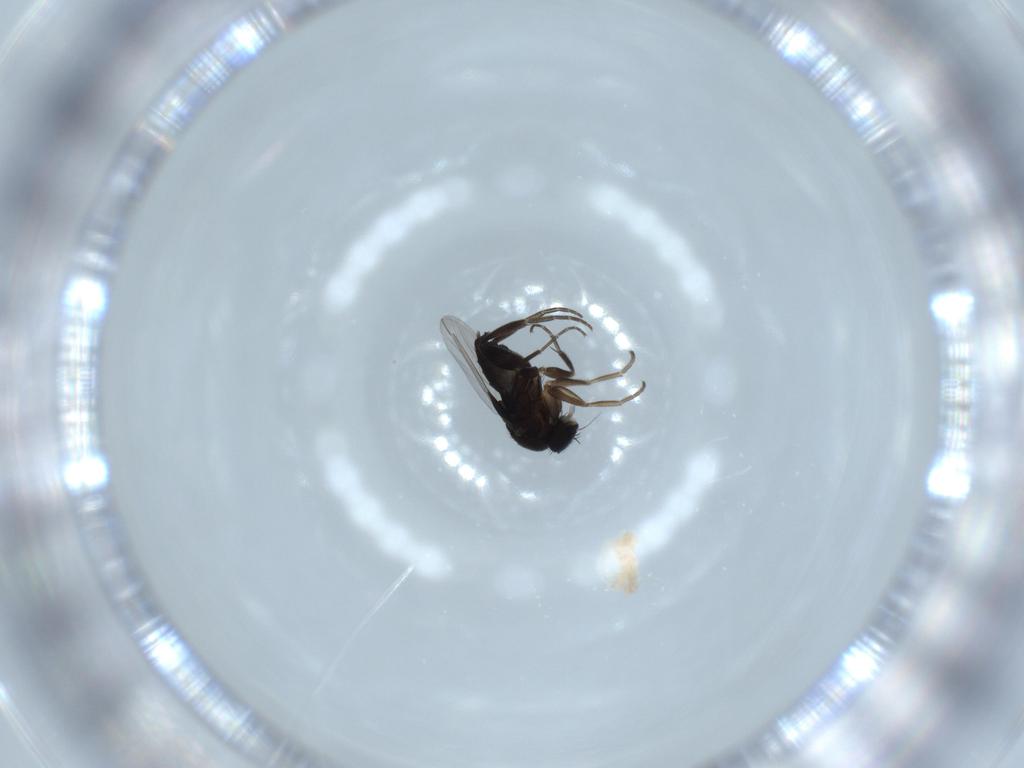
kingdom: Animalia
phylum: Arthropoda
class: Insecta
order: Diptera
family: Phoridae
